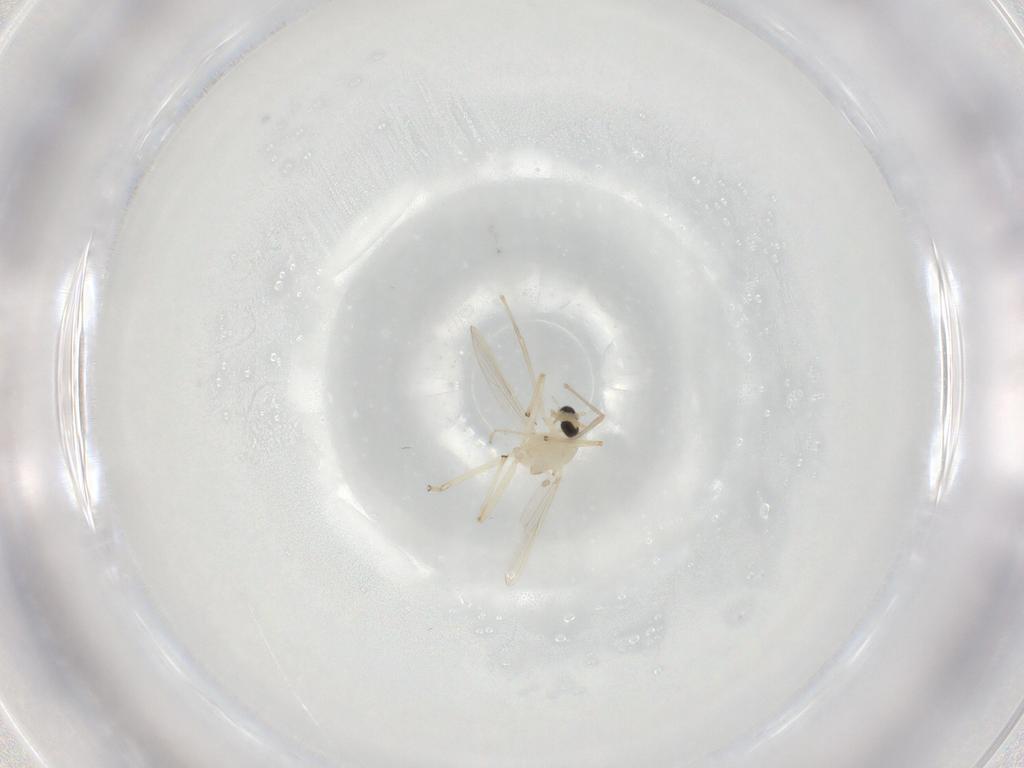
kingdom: Animalia
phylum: Arthropoda
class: Insecta
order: Diptera
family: Chironomidae
